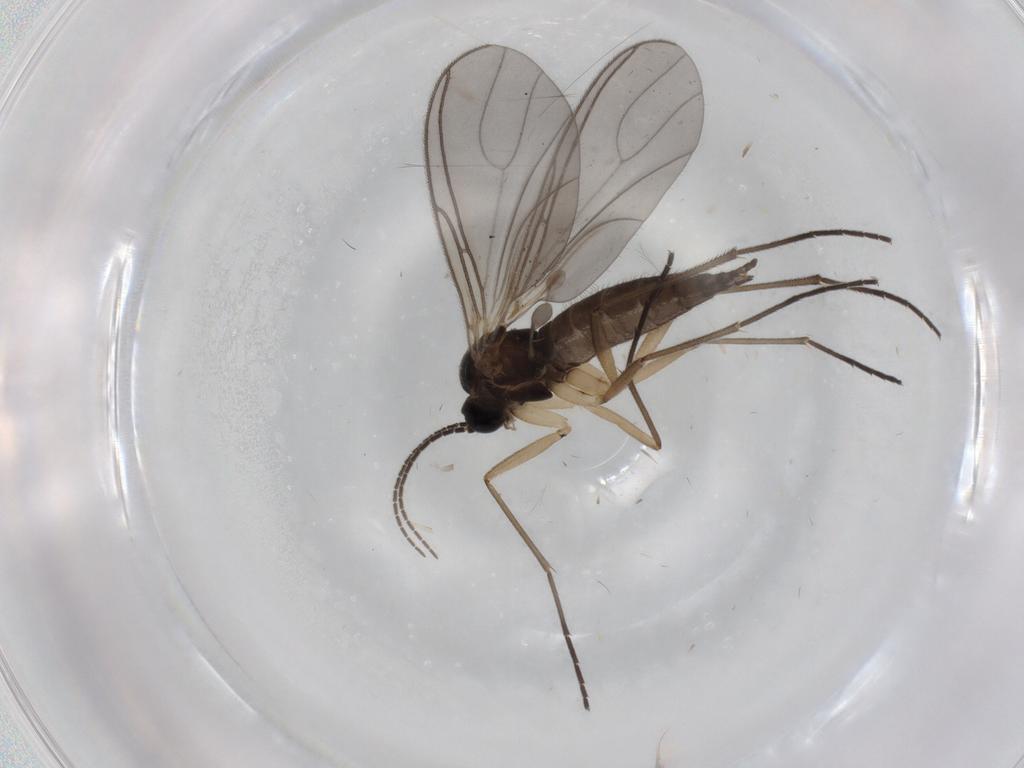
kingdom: Animalia
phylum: Arthropoda
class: Insecta
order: Diptera
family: Sciaridae
